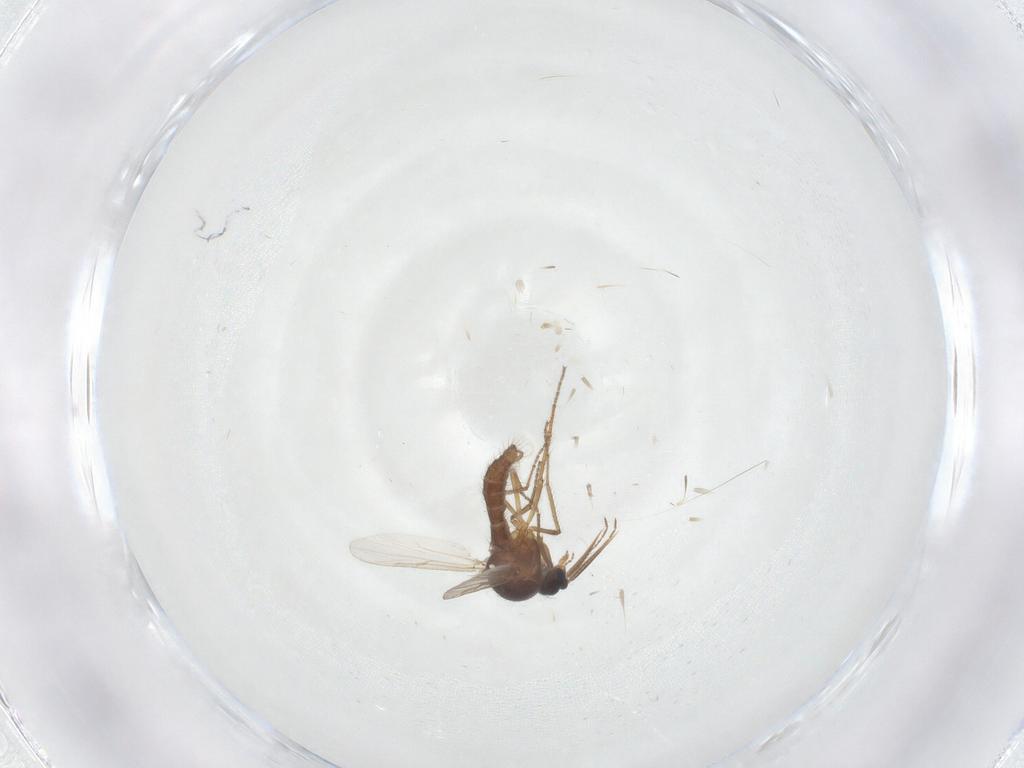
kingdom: Animalia
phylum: Arthropoda
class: Insecta
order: Diptera
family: Ceratopogonidae
